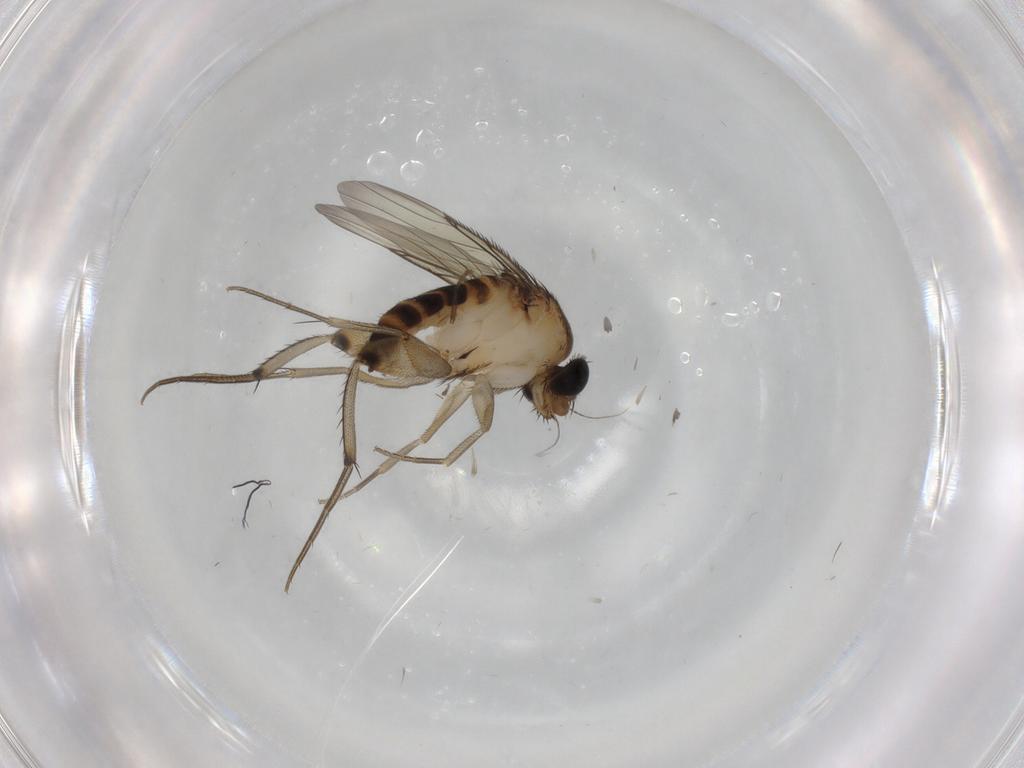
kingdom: Animalia
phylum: Arthropoda
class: Insecta
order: Diptera
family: Phoridae
